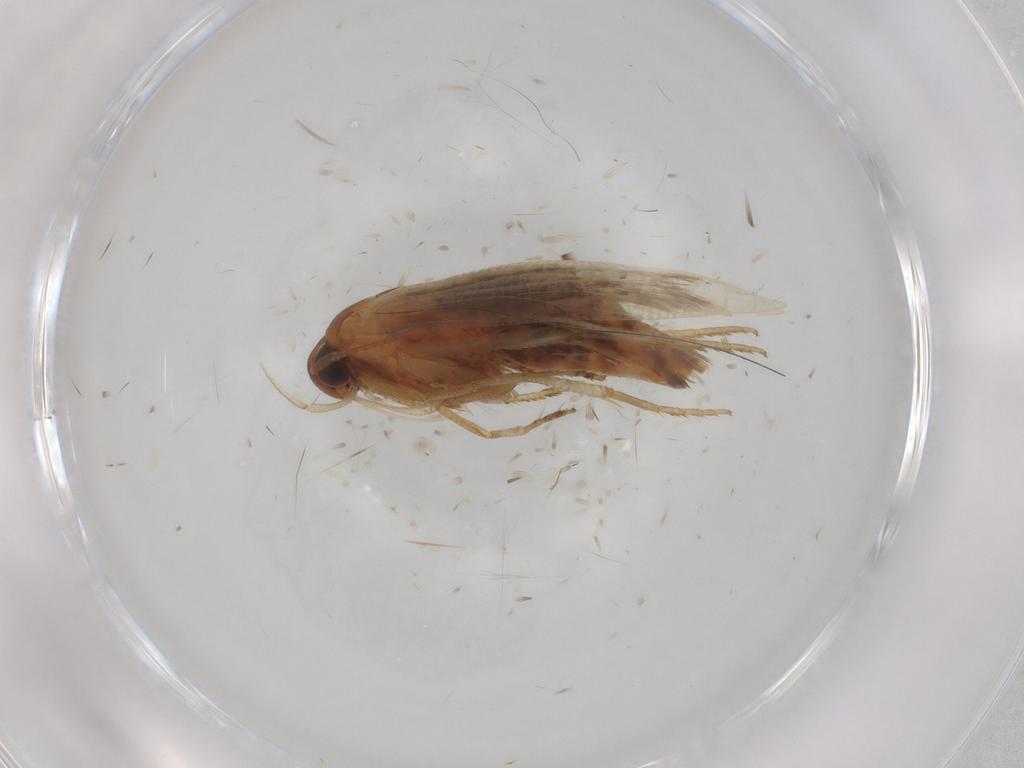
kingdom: Animalia
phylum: Arthropoda
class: Insecta
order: Lepidoptera
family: Cosmopterigidae
